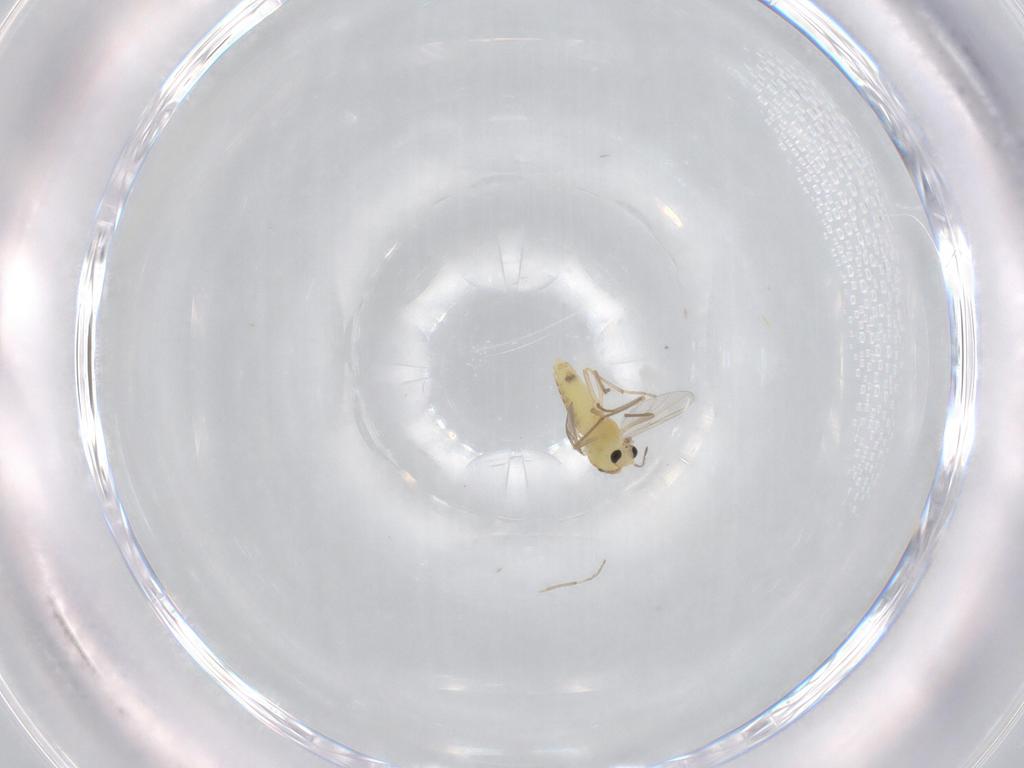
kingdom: Animalia
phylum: Arthropoda
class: Insecta
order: Diptera
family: Chironomidae
